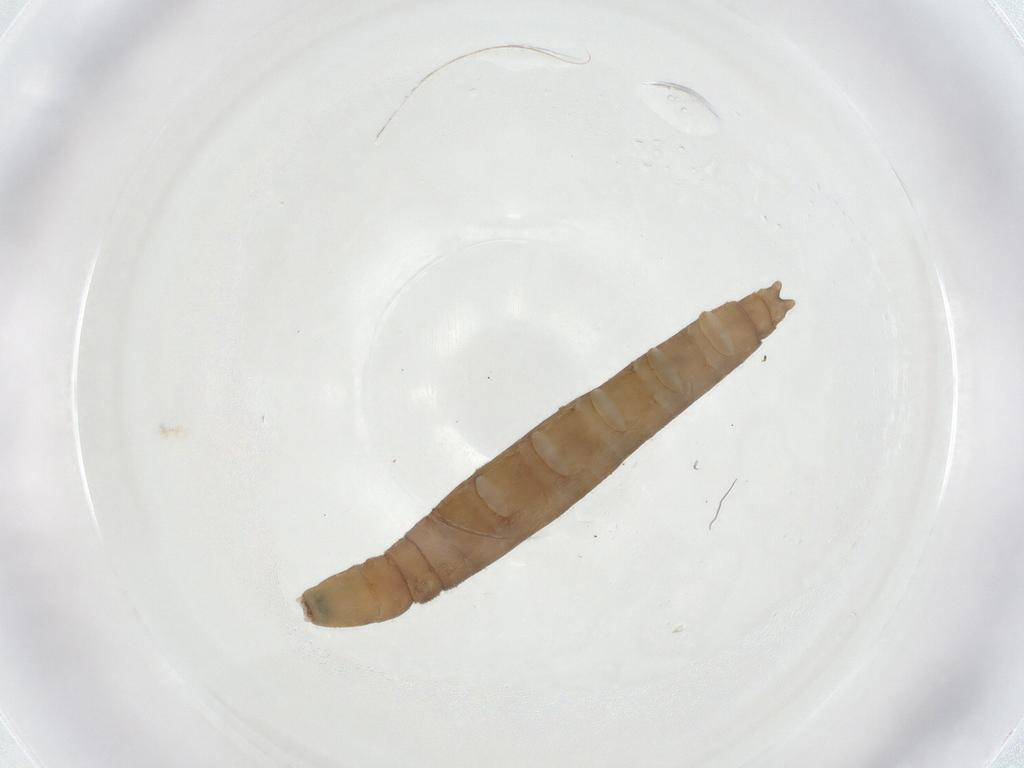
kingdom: Animalia
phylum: Arthropoda
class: Insecta
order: Diptera
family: Pediciidae
